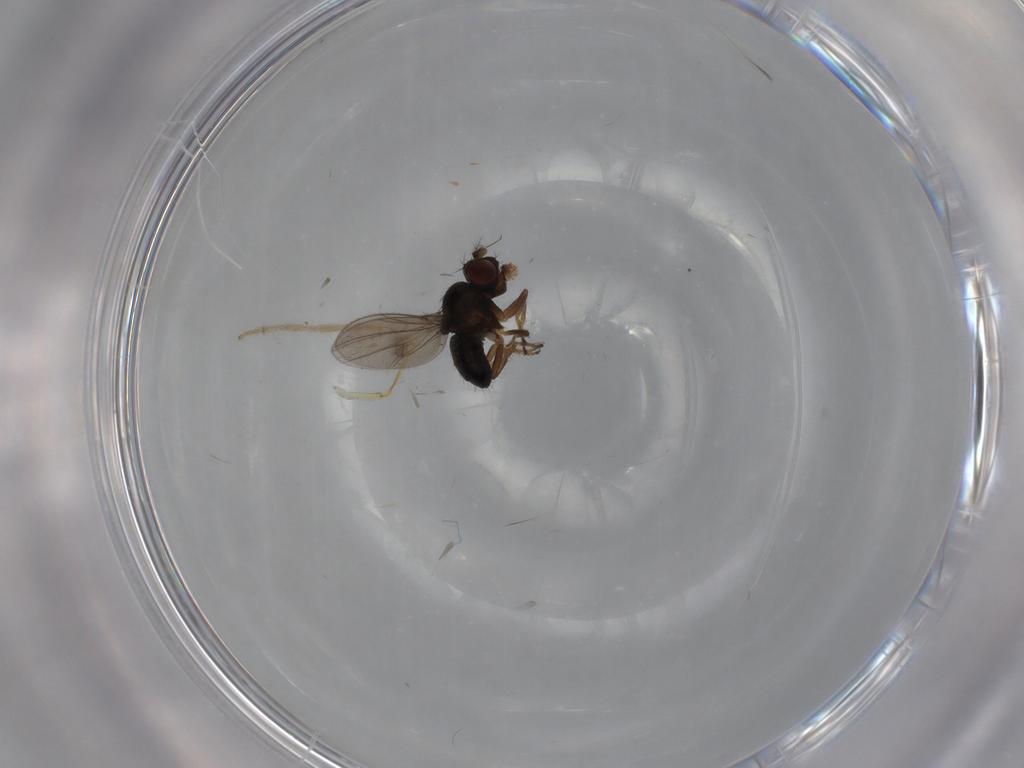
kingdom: Animalia
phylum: Arthropoda
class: Insecta
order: Diptera
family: Ephydridae
